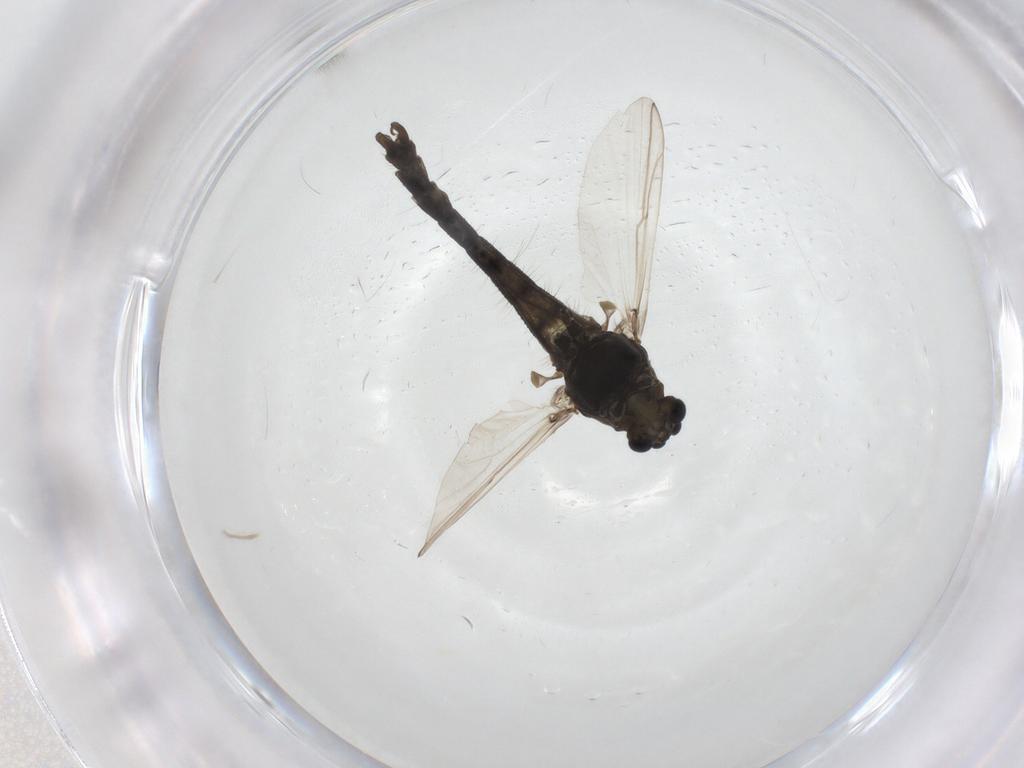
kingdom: Animalia
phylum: Arthropoda
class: Insecta
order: Diptera
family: Chironomidae
